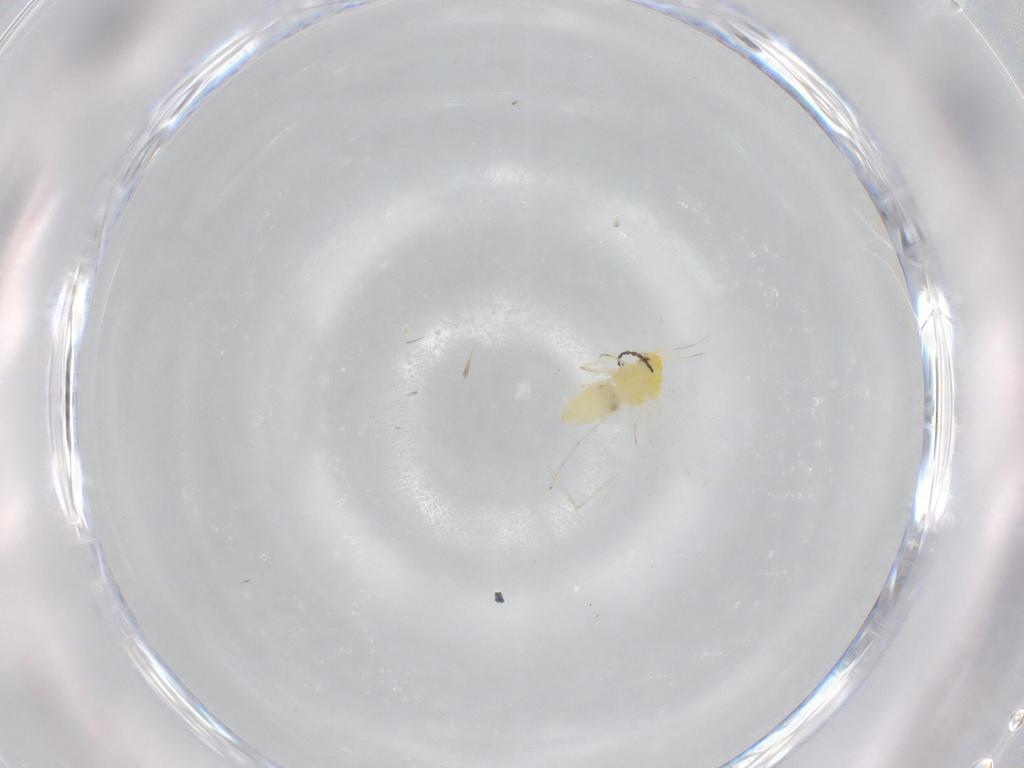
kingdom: Animalia
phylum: Arthropoda
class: Insecta
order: Hemiptera
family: Aleyrodidae
